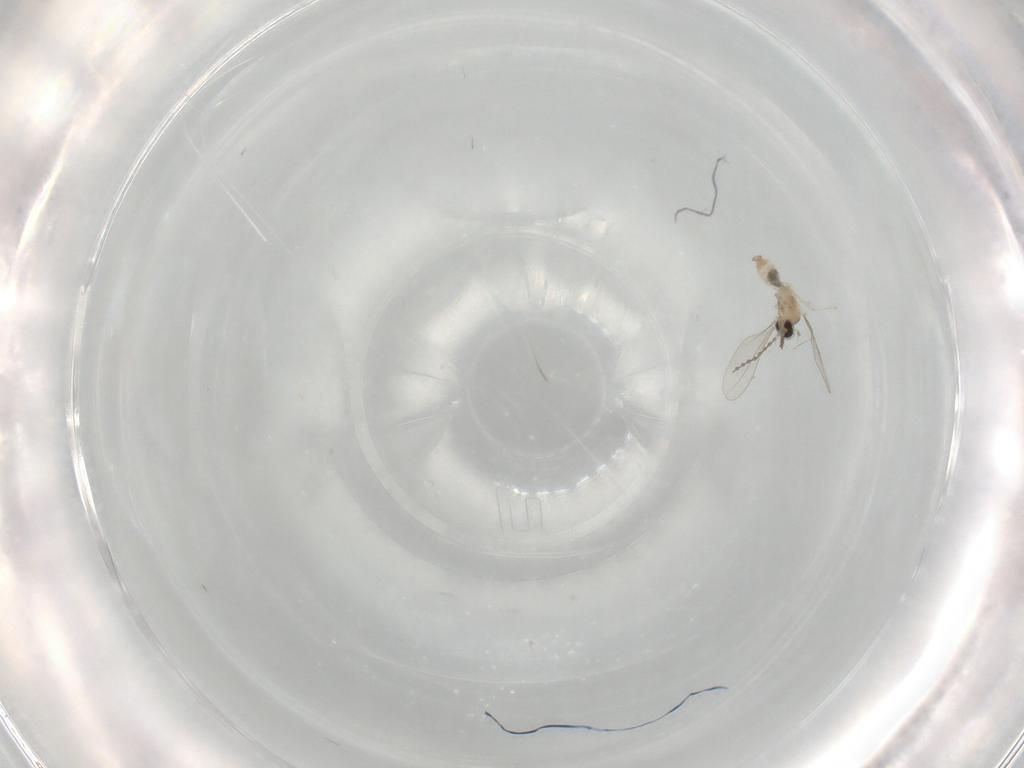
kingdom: Animalia
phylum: Arthropoda
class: Insecta
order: Diptera
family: Cecidomyiidae
